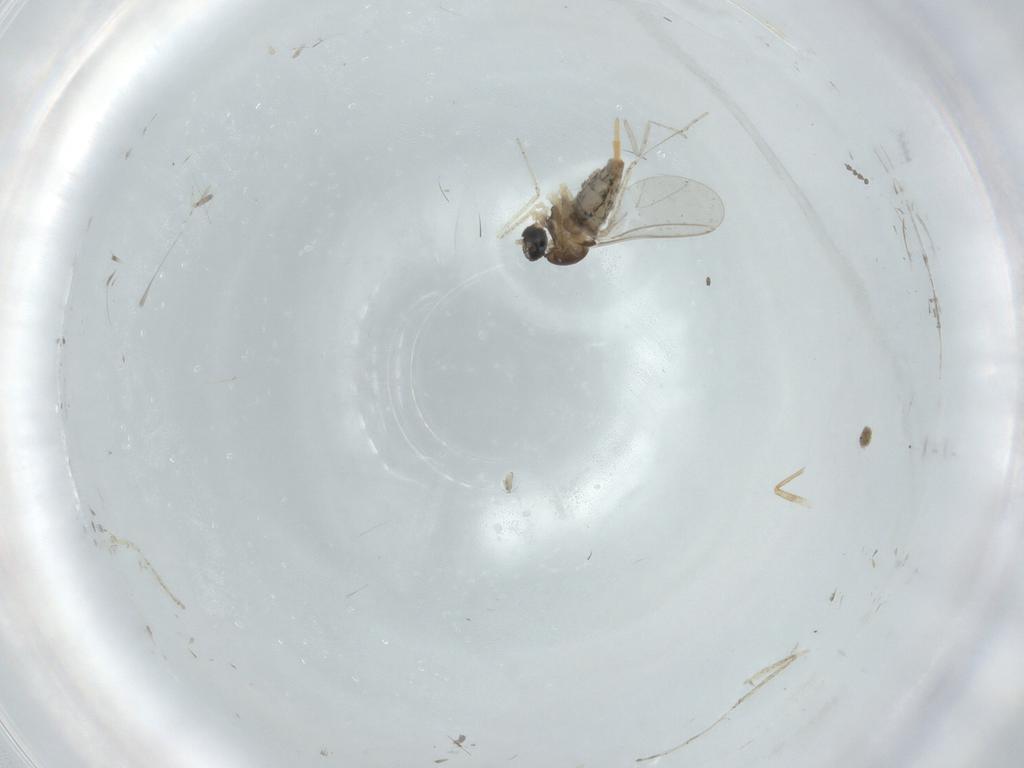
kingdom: Animalia
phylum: Arthropoda
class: Insecta
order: Diptera
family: Cecidomyiidae
